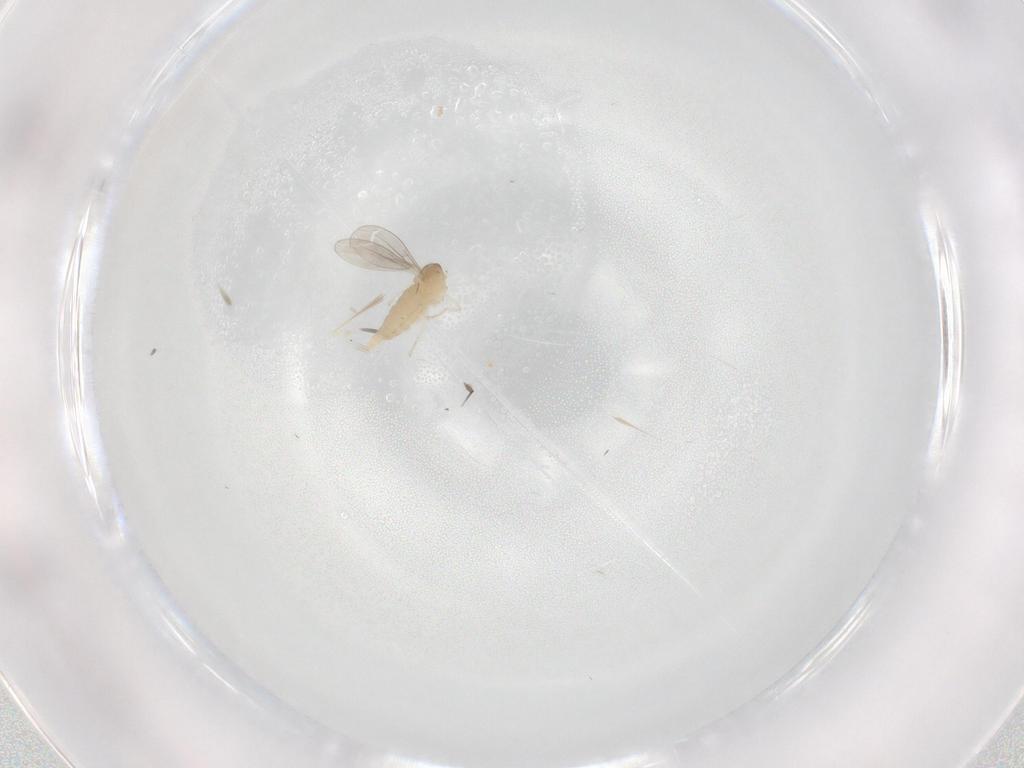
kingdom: Animalia
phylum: Arthropoda
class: Insecta
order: Diptera
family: Cecidomyiidae
